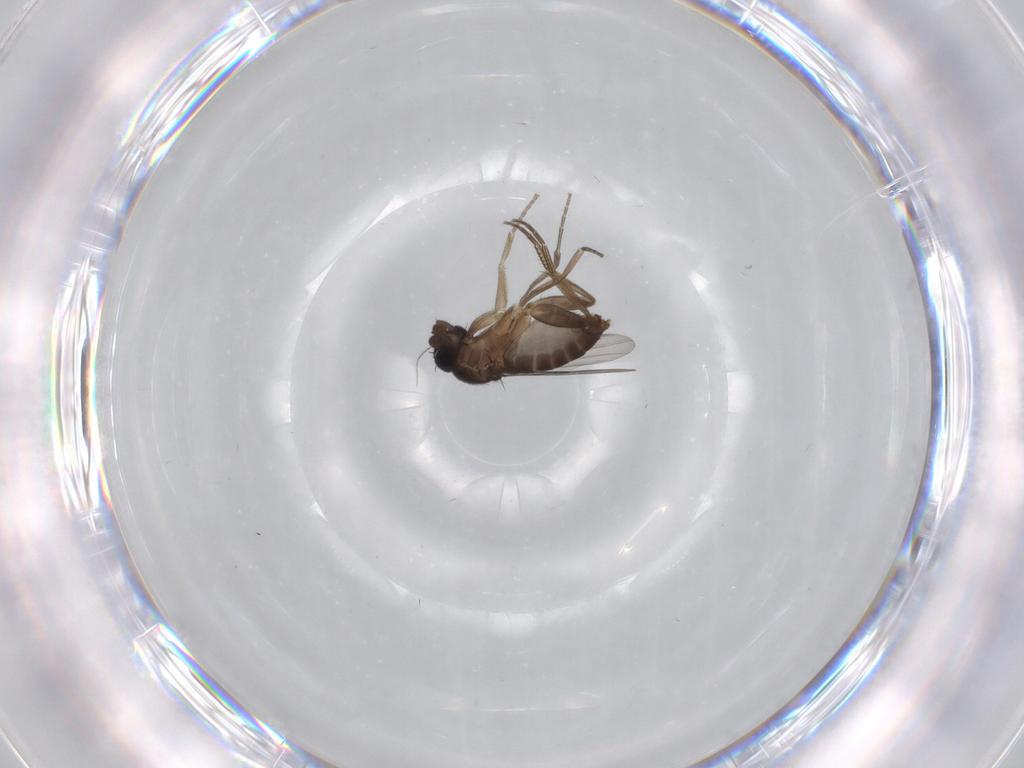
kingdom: Animalia
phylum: Arthropoda
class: Insecta
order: Diptera
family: Phoridae
